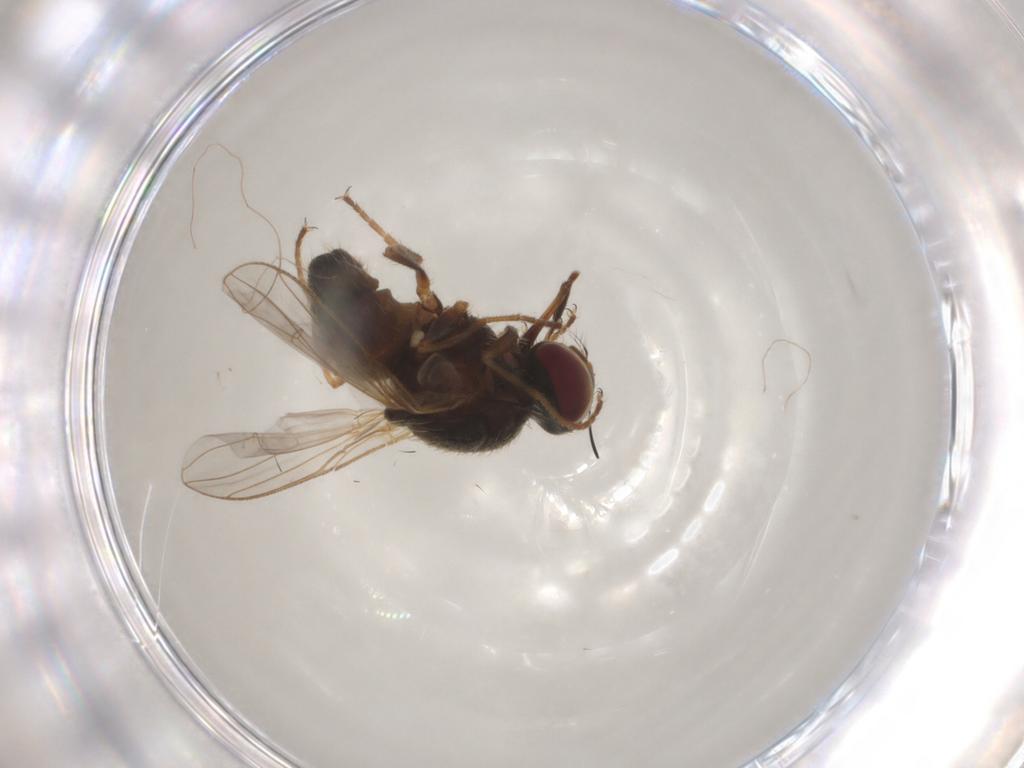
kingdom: Animalia
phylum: Arthropoda
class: Insecta
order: Diptera
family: Muscidae
